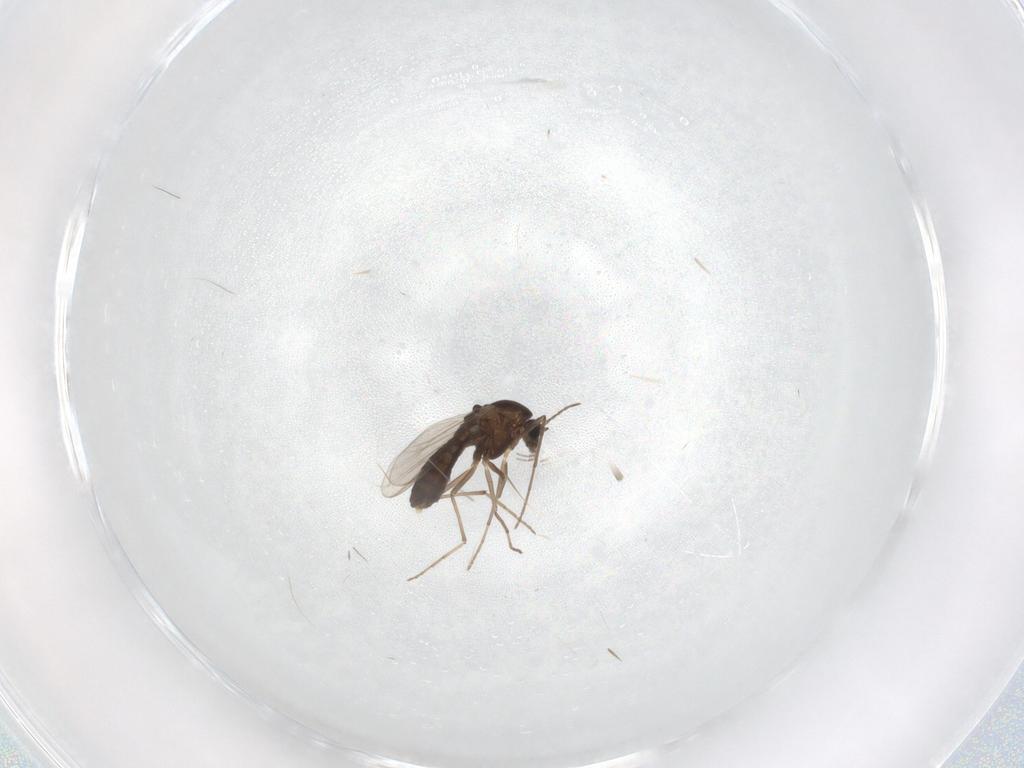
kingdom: Animalia
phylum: Arthropoda
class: Insecta
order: Diptera
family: Chironomidae
